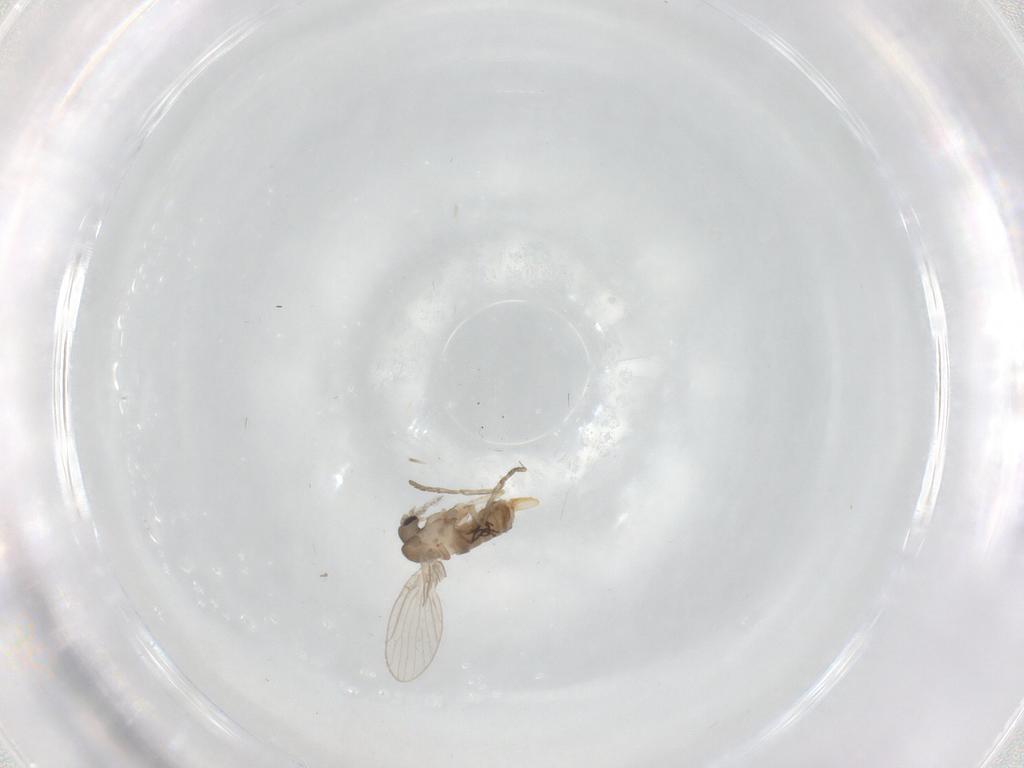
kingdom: Animalia
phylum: Arthropoda
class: Insecta
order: Diptera
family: Psychodidae
